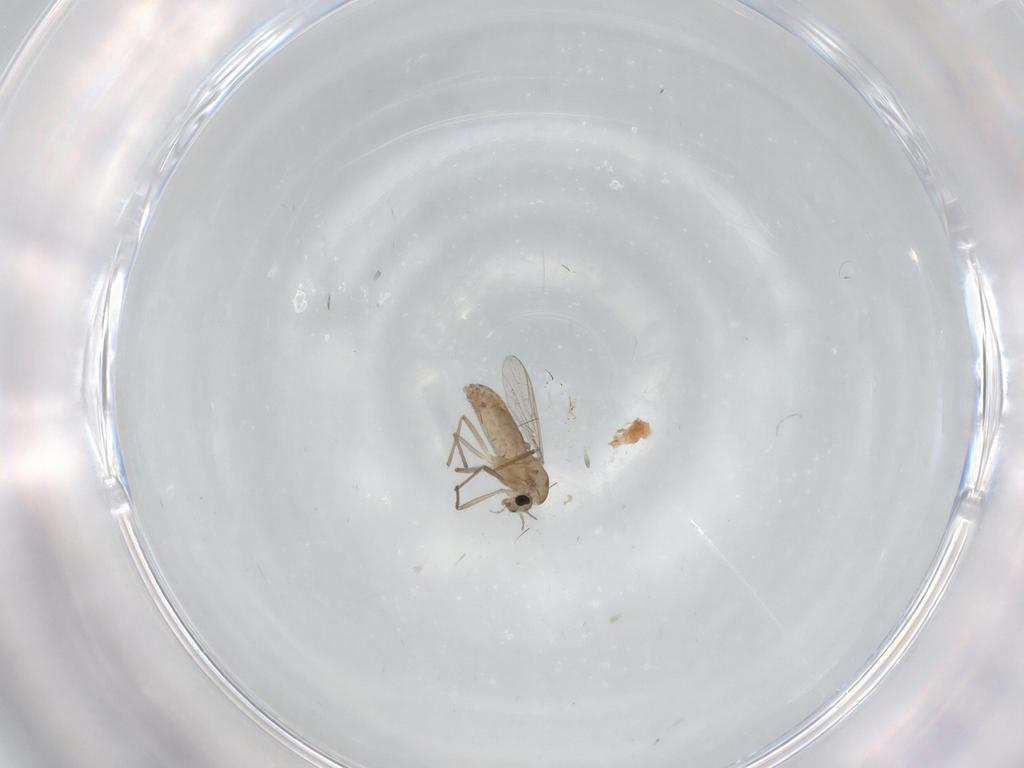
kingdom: Animalia
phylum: Arthropoda
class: Insecta
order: Diptera
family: Chironomidae
